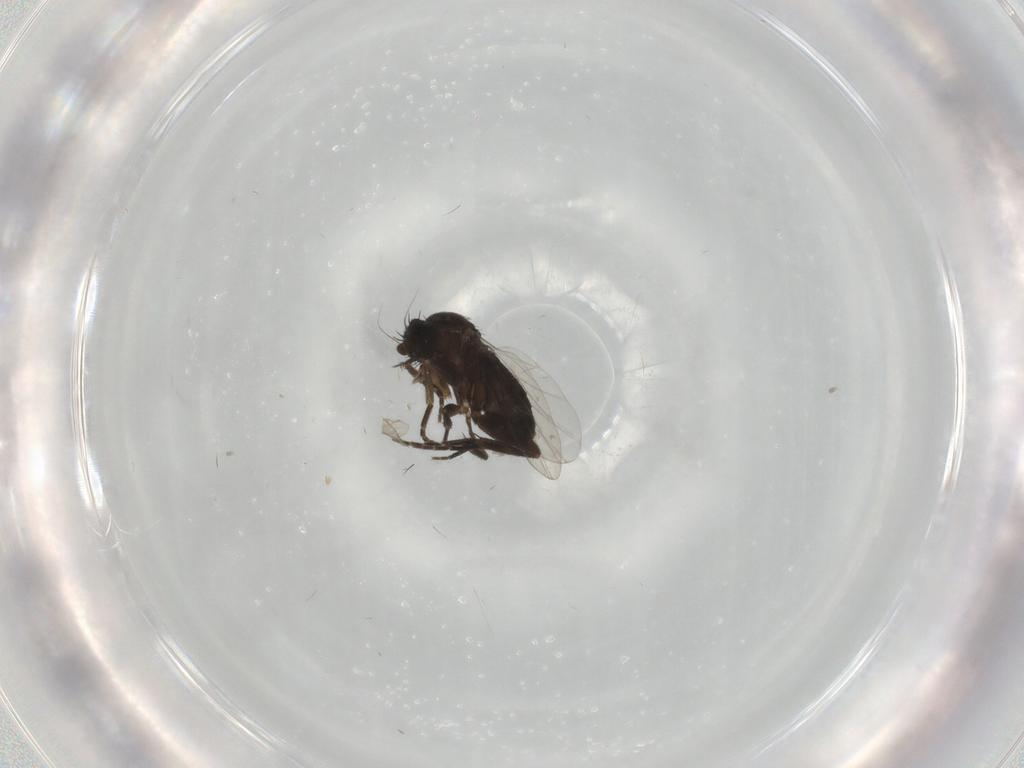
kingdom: Animalia
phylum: Arthropoda
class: Insecta
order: Diptera
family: Phoridae
